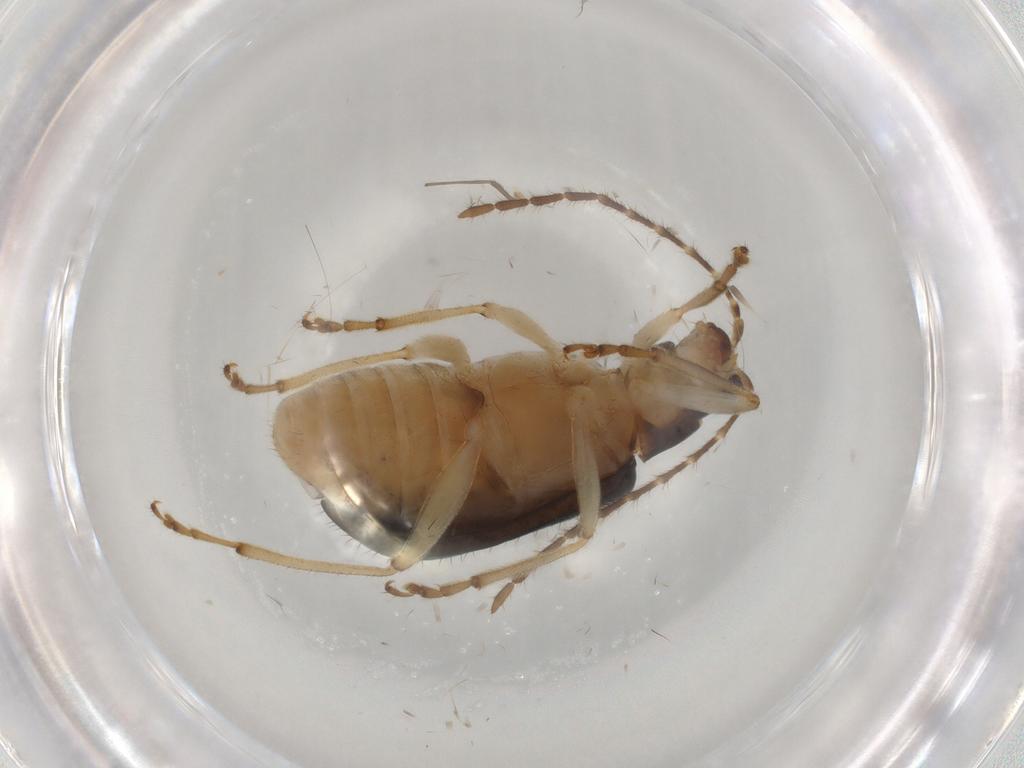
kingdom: Animalia
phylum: Arthropoda
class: Insecta
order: Coleoptera
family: Chrysomelidae
